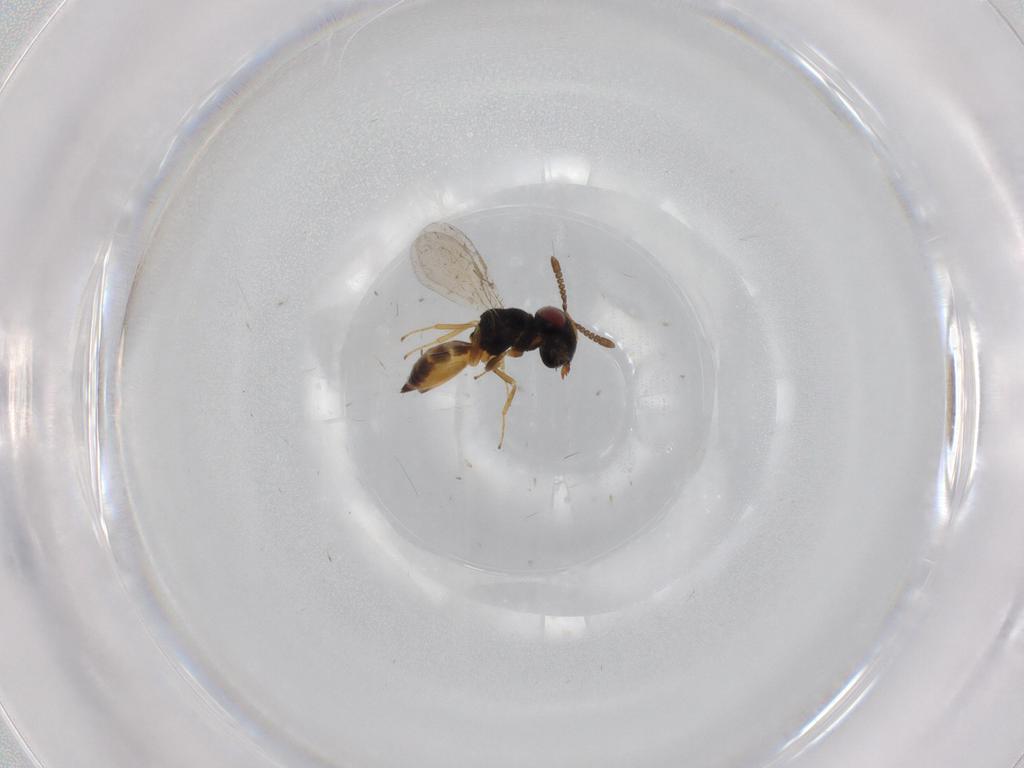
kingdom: Animalia
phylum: Arthropoda
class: Insecta
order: Hymenoptera
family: Pteromalidae
